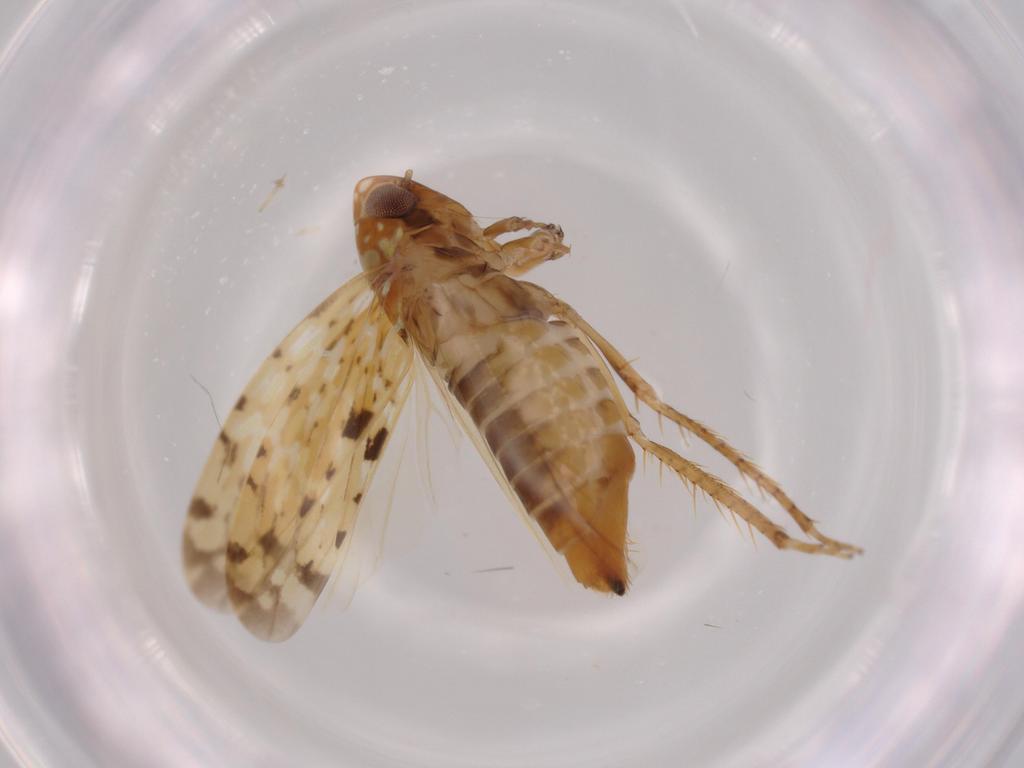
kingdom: Animalia
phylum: Arthropoda
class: Insecta
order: Hemiptera
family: Cicadellidae
